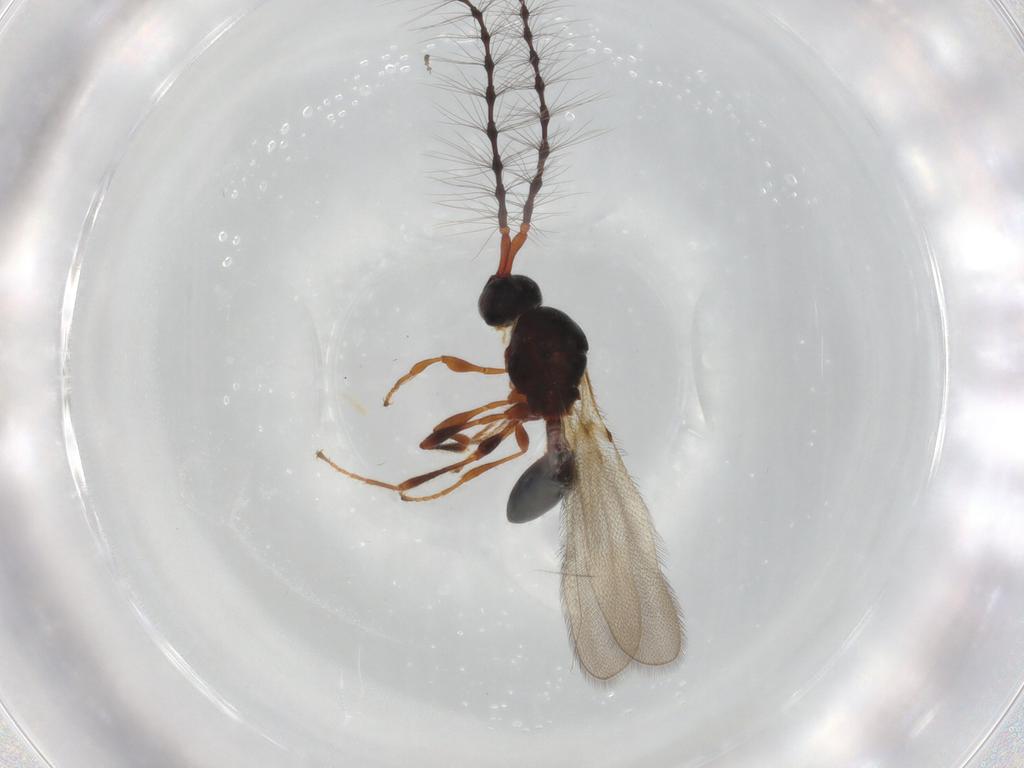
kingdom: Animalia
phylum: Arthropoda
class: Insecta
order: Hymenoptera
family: Diapriidae
